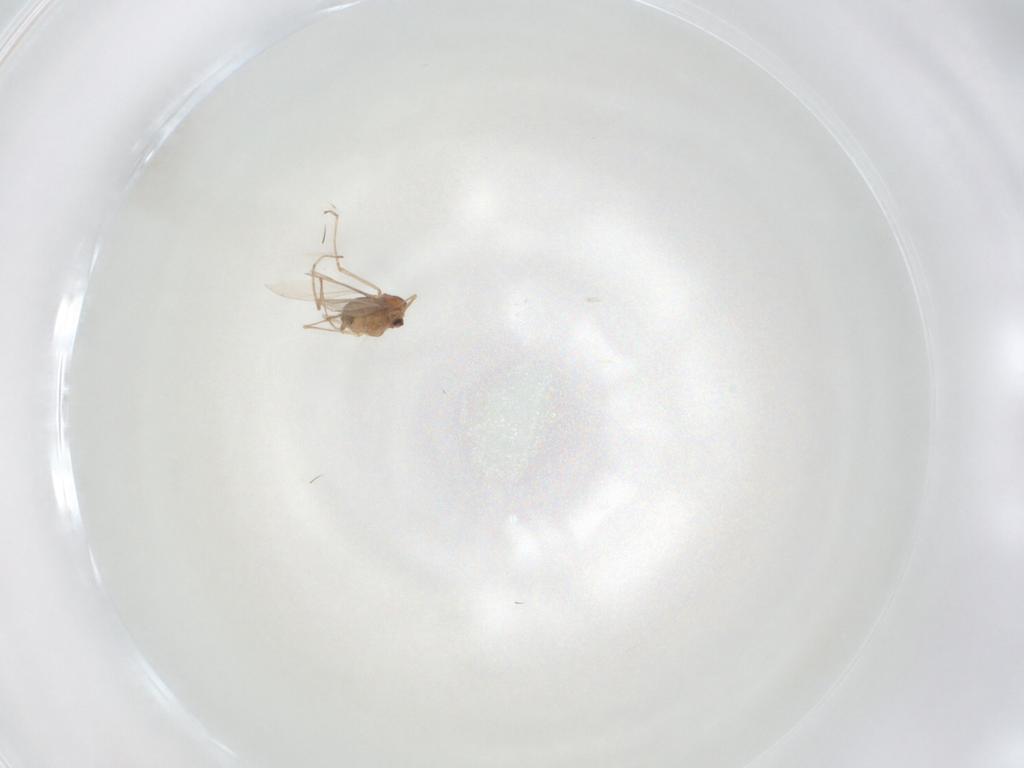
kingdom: Animalia
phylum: Arthropoda
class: Insecta
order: Diptera
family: Cecidomyiidae
